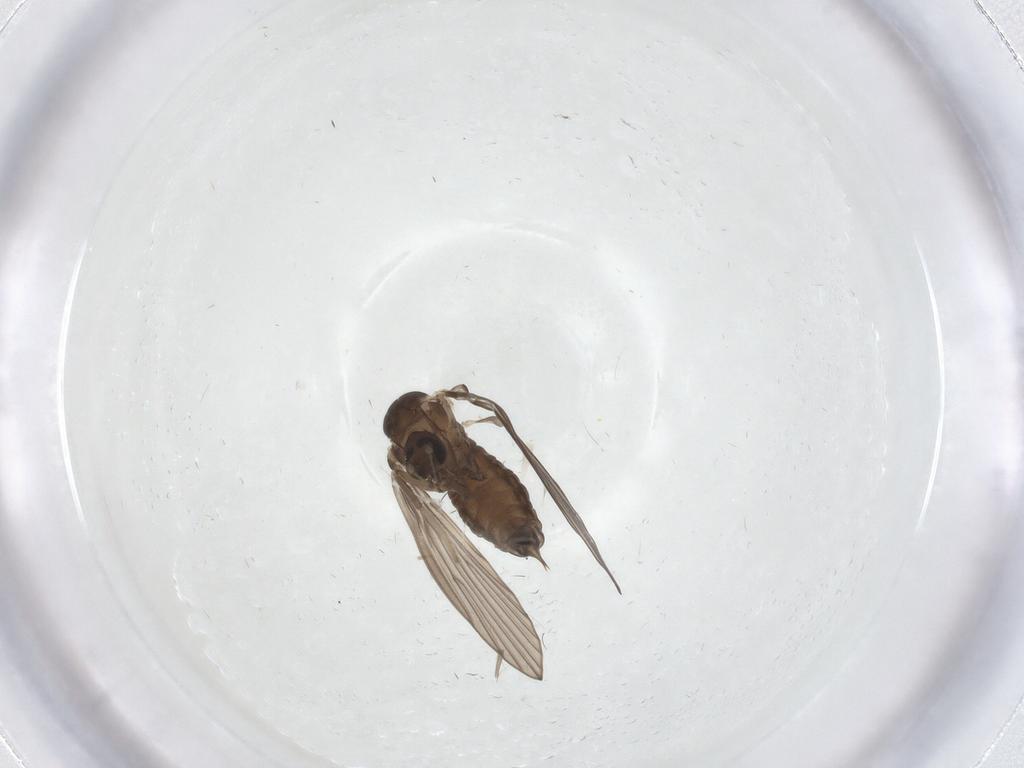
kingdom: Animalia
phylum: Arthropoda
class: Insecta
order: Diptera
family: Psychodidae
